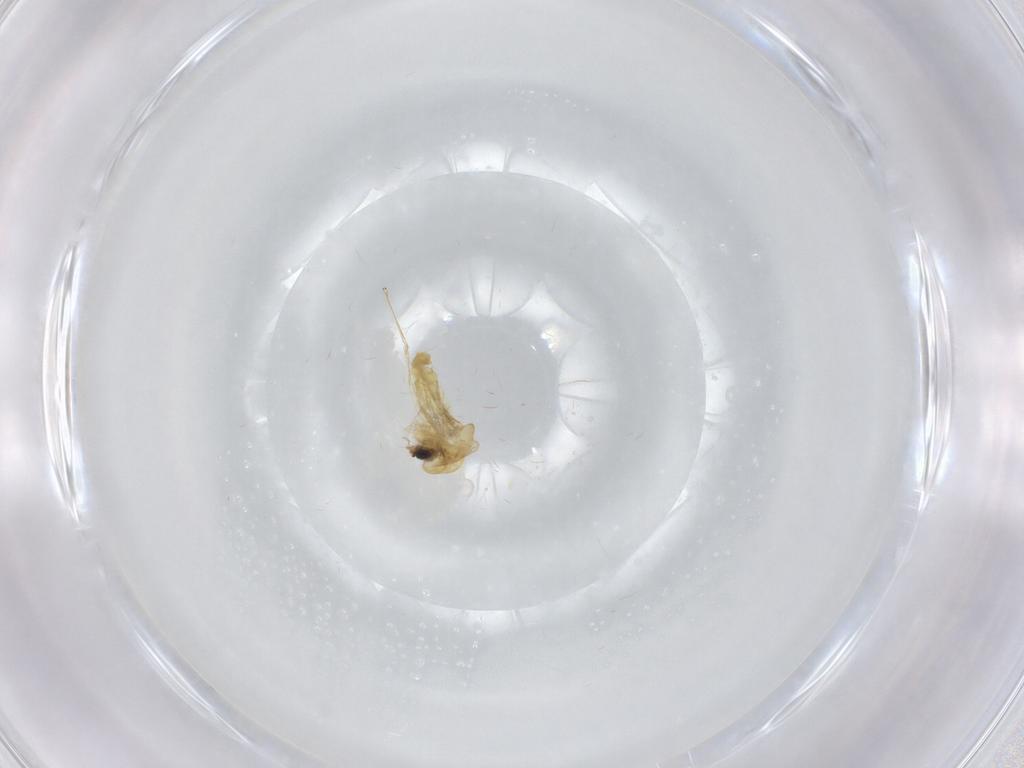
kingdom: Animalia
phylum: Arthropoda
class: Insecta
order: Diptera
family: Chironomidae
